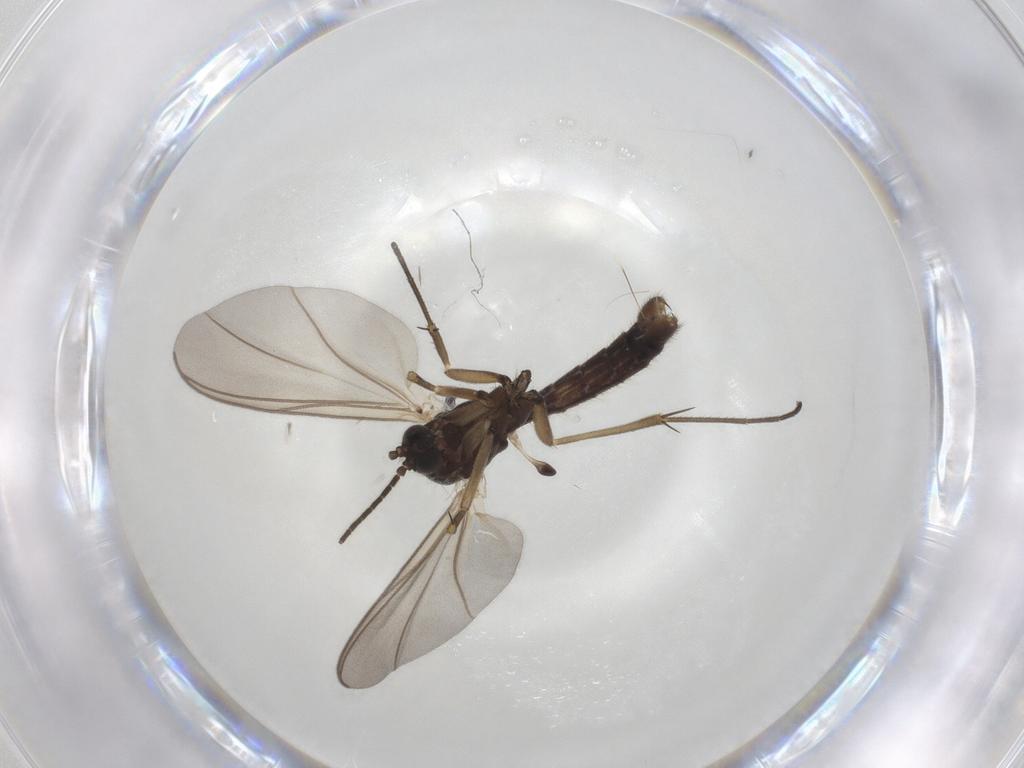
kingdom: Animalia
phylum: Arthropoda
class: Insecta
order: Diptera
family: Mycetophilidae
